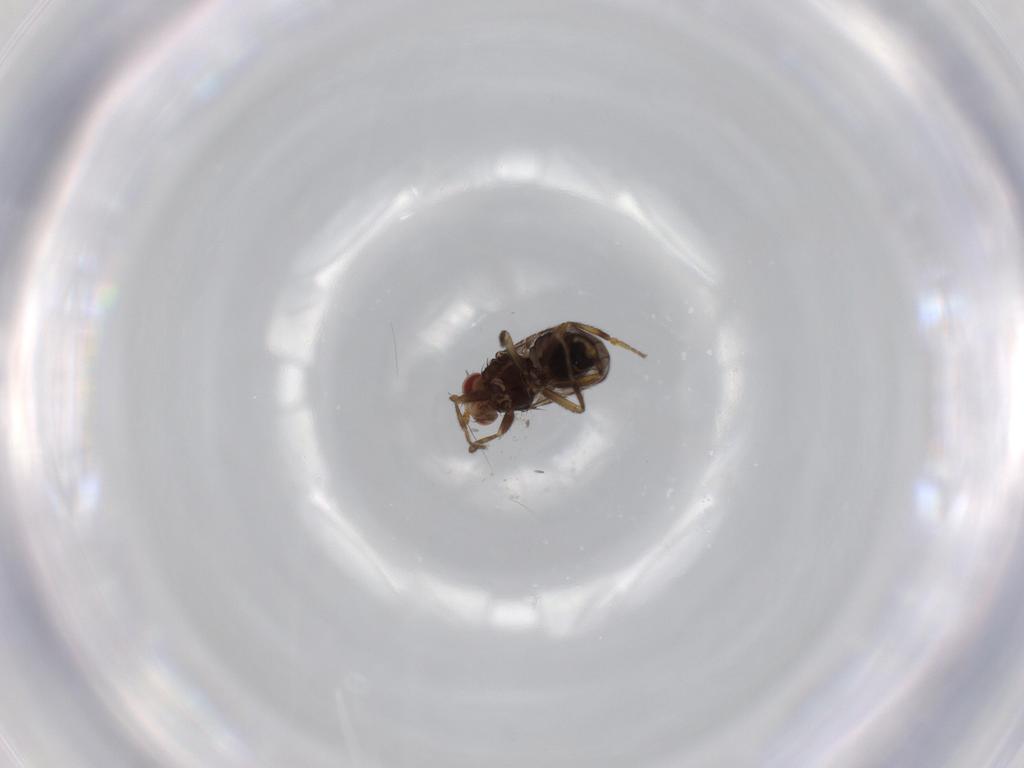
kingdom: Animalia
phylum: Arthropoda
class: Insecta
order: Diptera
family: Sphaeroceridae
